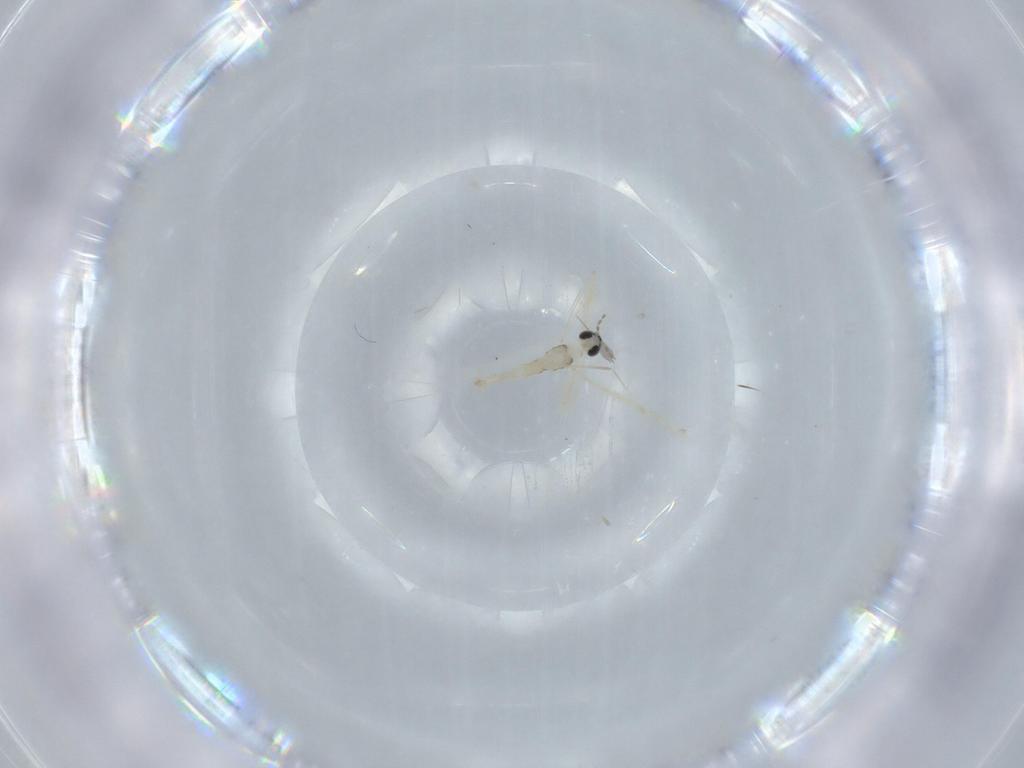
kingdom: Animalia
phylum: Arthropoda
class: Insecta
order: Diptera
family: Cecidomyiidae
